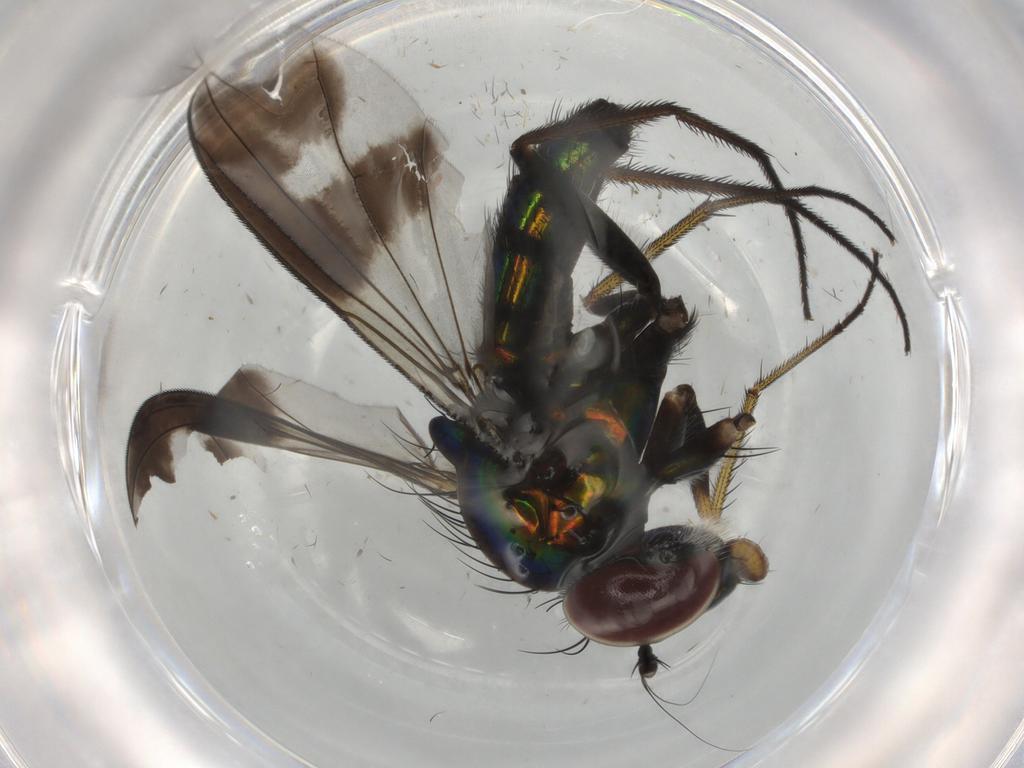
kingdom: Animalia
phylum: Arthropoda
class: Insecta
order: Diptera
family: Dolichopodidae
